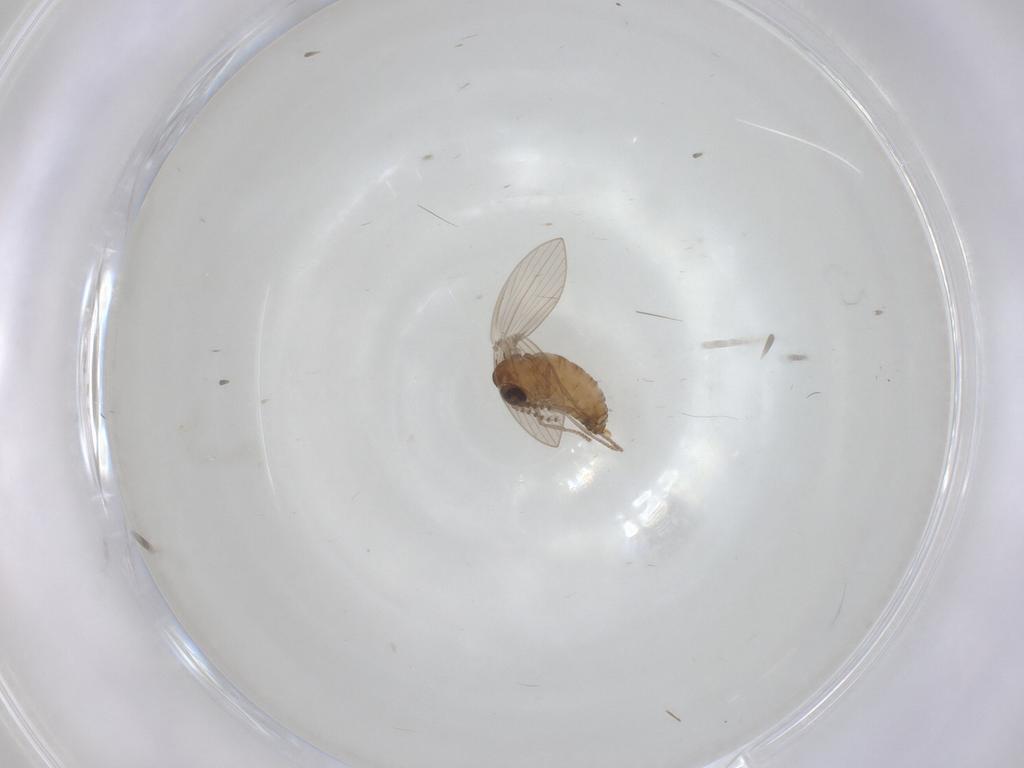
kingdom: Animalia
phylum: Arthropoda
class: Insecta
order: Diptera
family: Psychodidae
